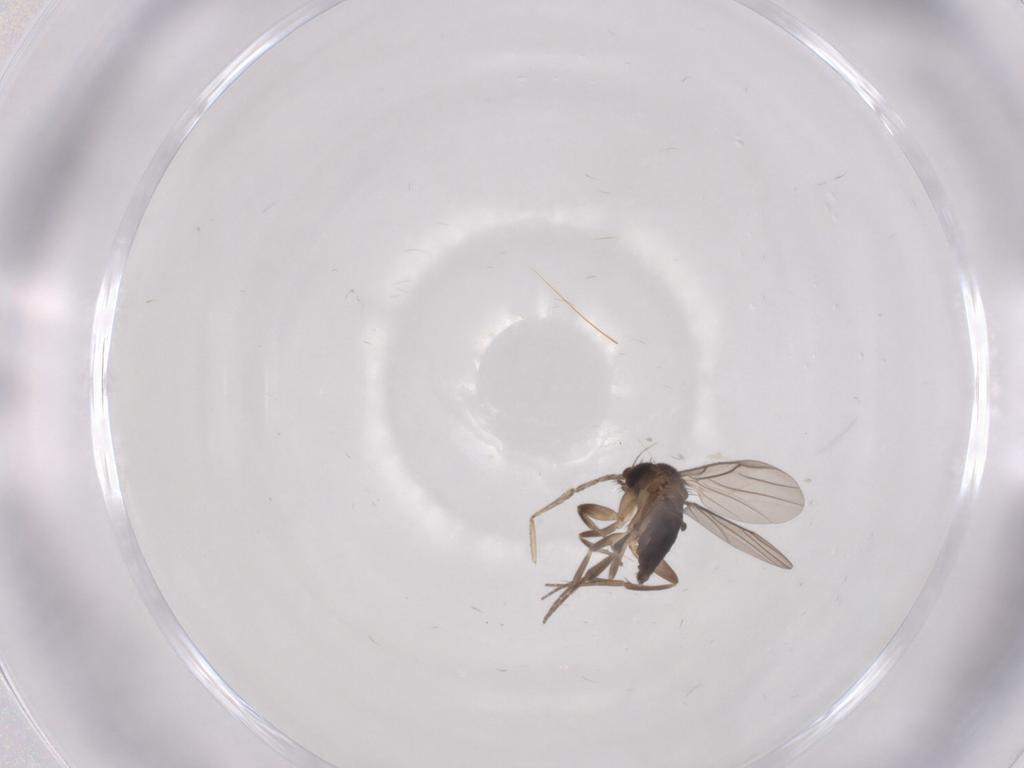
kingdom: Animalia
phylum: Arthropoda
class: Insecta
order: Diptera
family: Phoridae
